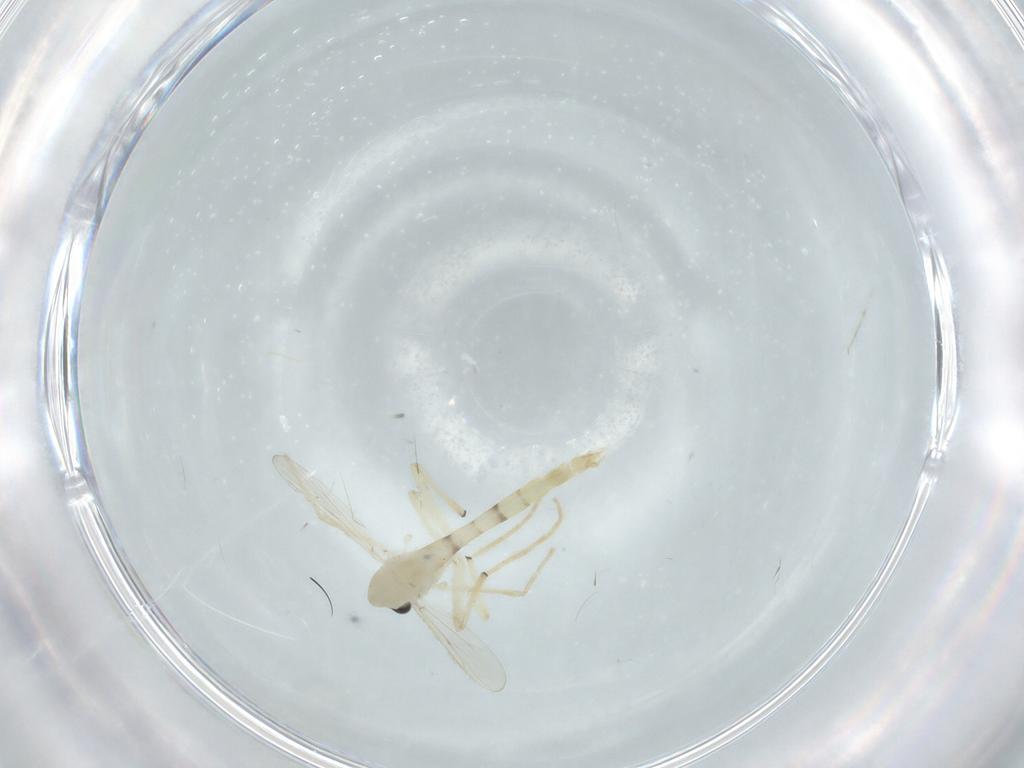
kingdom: Animalia
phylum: Arthropoda
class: Insecta
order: Diptera
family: Chironomidae
